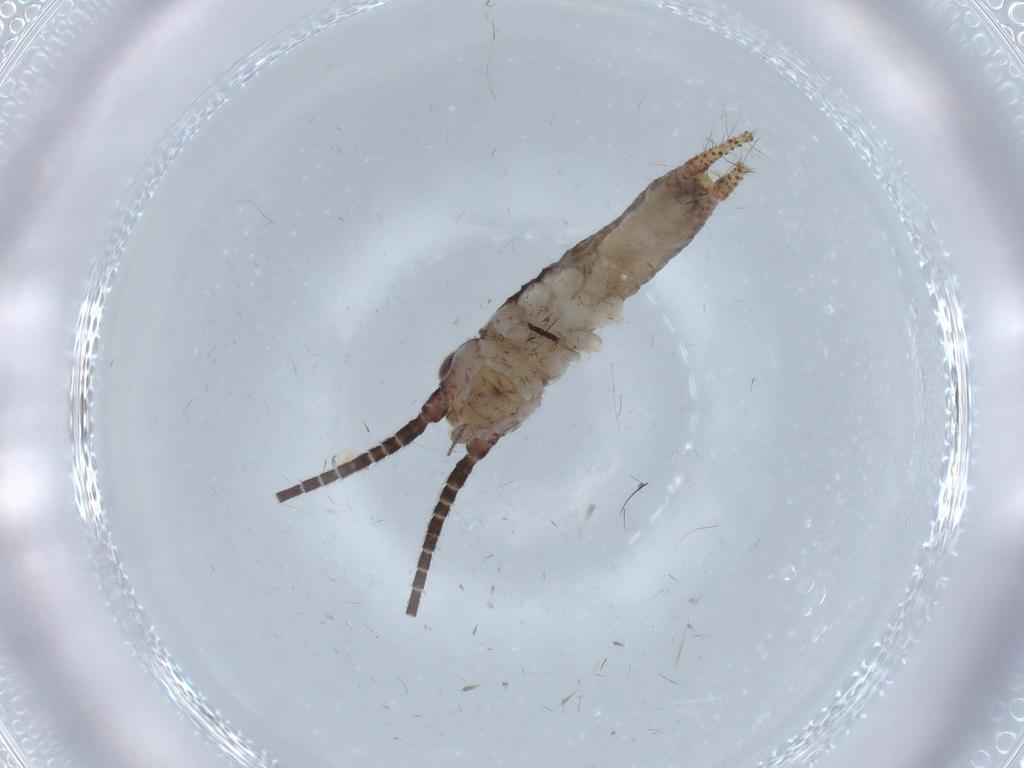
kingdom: Animalia
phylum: Arthropoda
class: Insecta
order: Orthoptera
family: Gryllidae
